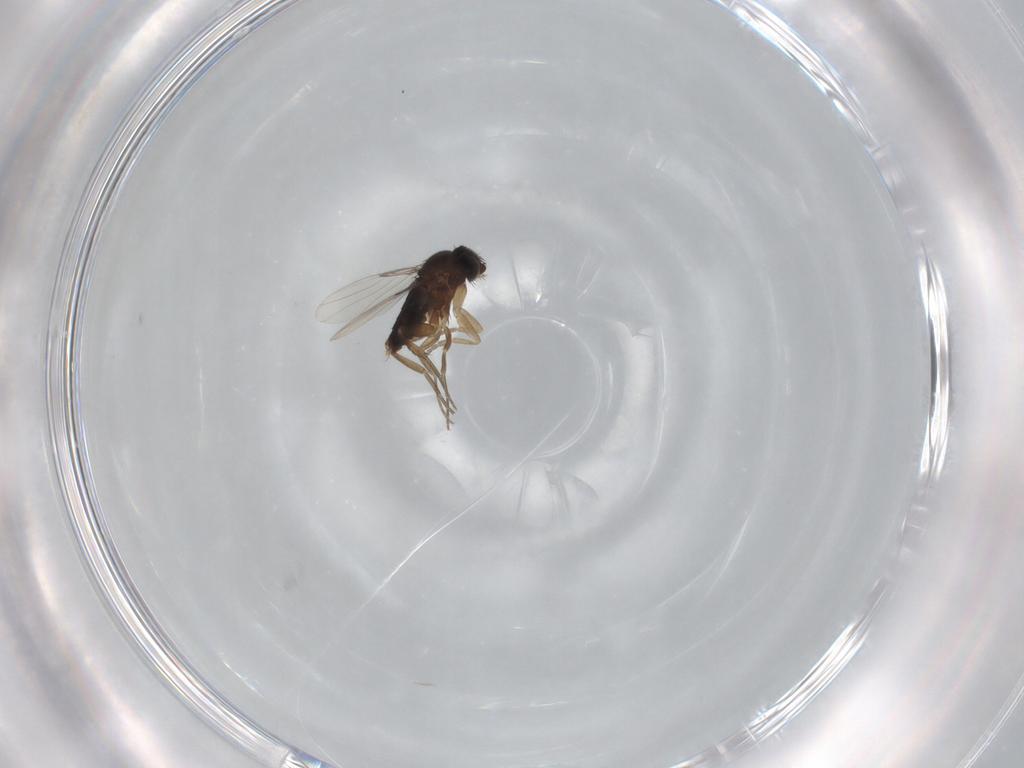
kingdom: Animalia
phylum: Arthropoda
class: Insecta
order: Diptera
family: Phoridae
